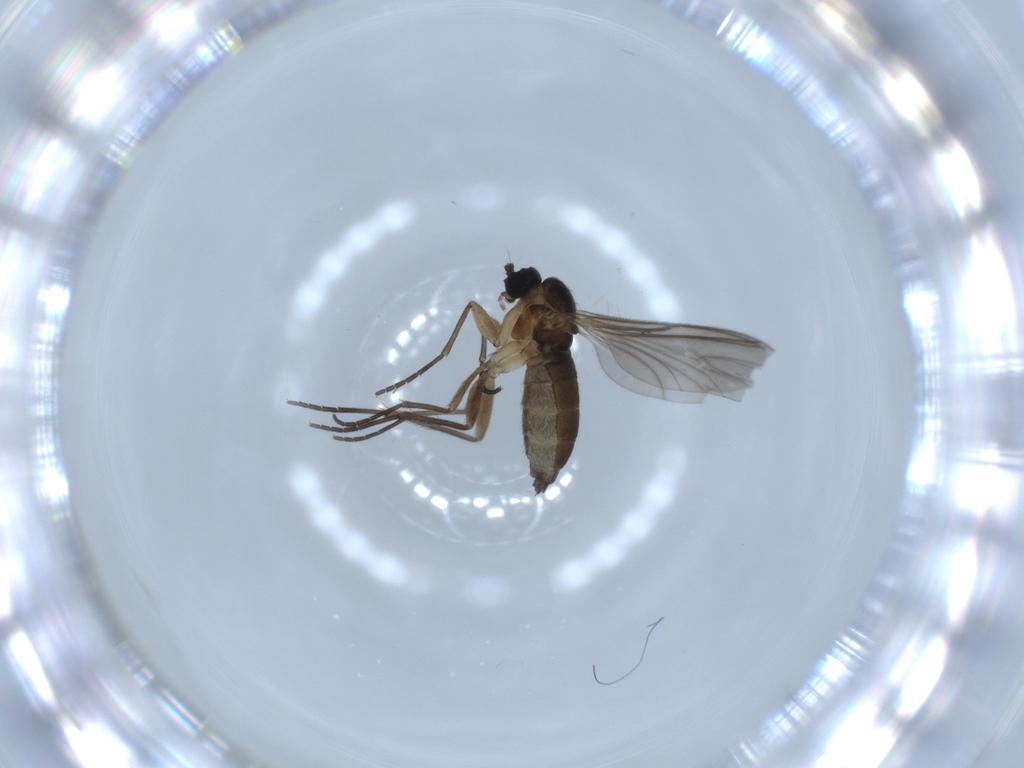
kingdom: Animalia
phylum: Arthropoda
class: Insecta
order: Diptera
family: Sciaridae
